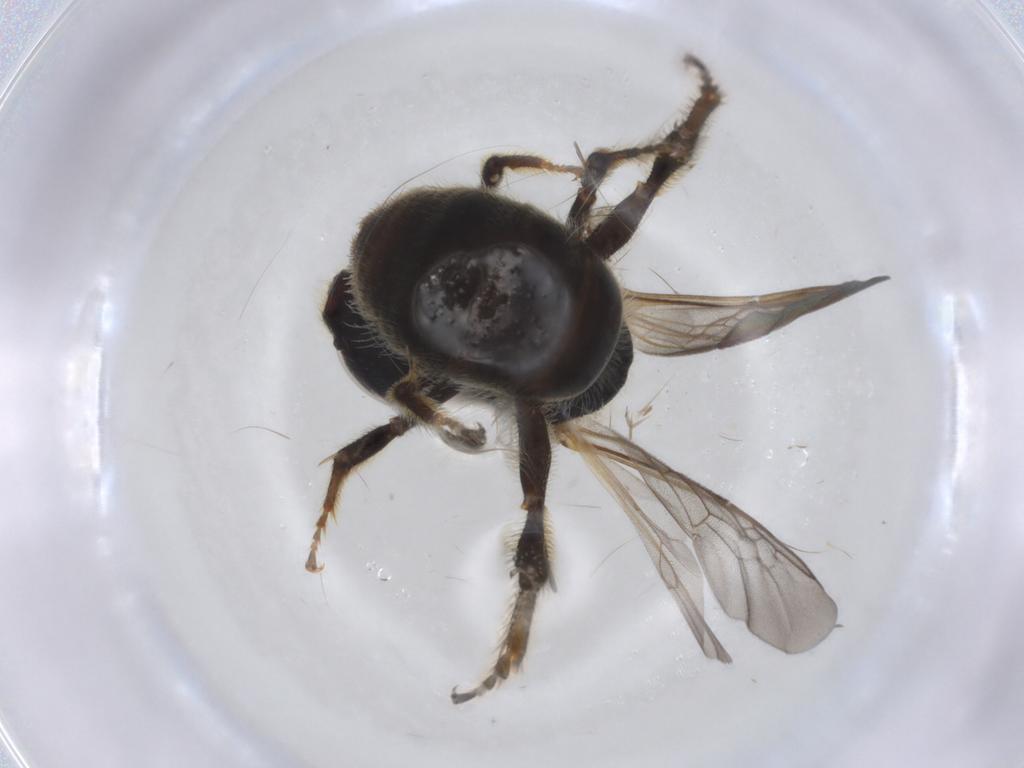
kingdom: Animalia
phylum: Arthropoda
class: Insecta
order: Hymenoptera
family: Apidae
